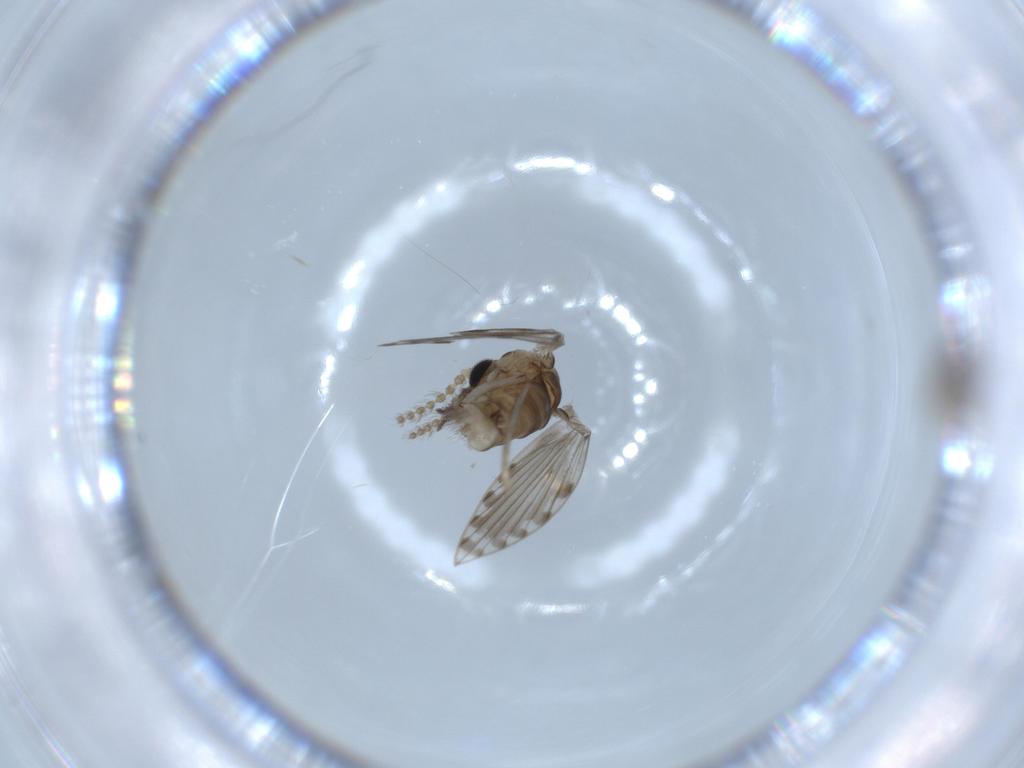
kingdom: Animalia
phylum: Arthropoda
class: Insecta
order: Diptera
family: Psychodidae
